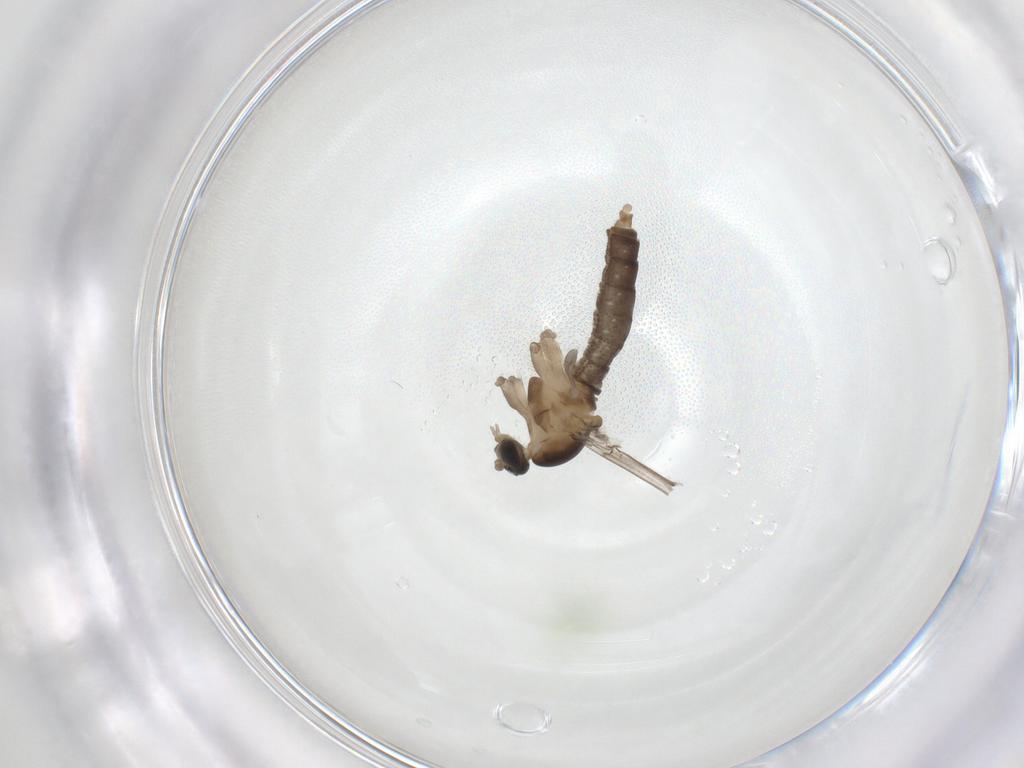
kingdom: Animalia
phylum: Arthropoda
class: Insecta
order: Diptera
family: Cecidomyiidae
